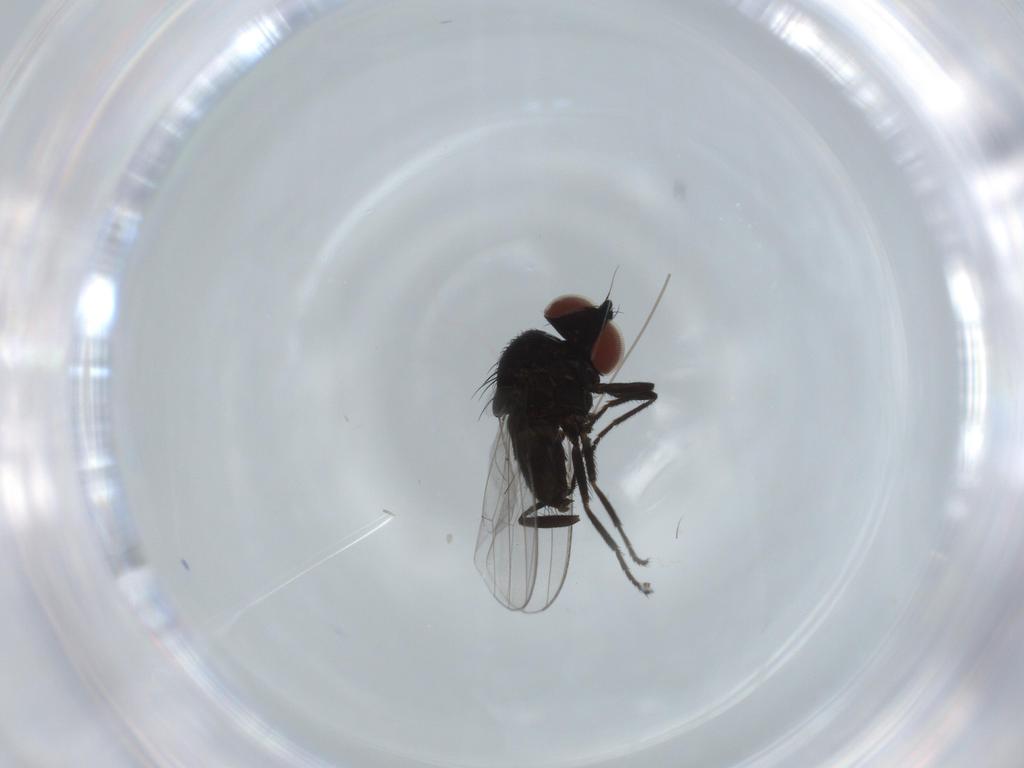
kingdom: Animalia
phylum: Arthropoda
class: Insecta
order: Diptera
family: Milichiidae
